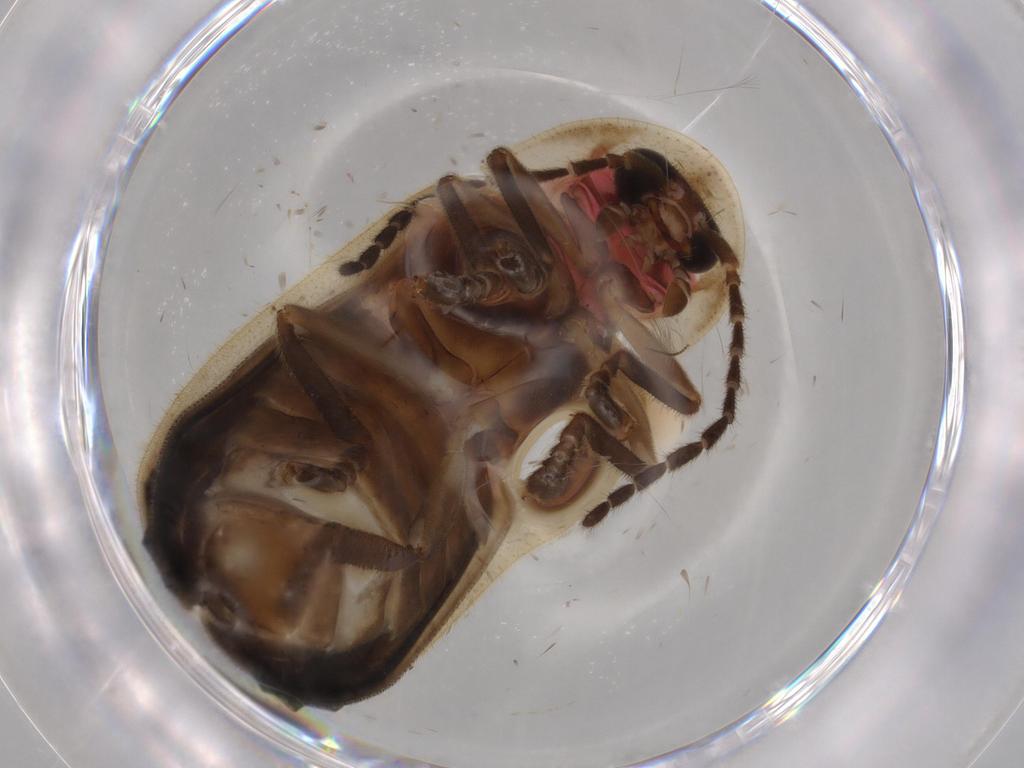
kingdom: Animalia
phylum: Arthropoda
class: Insecta
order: Coleoptera
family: Lampyridae
